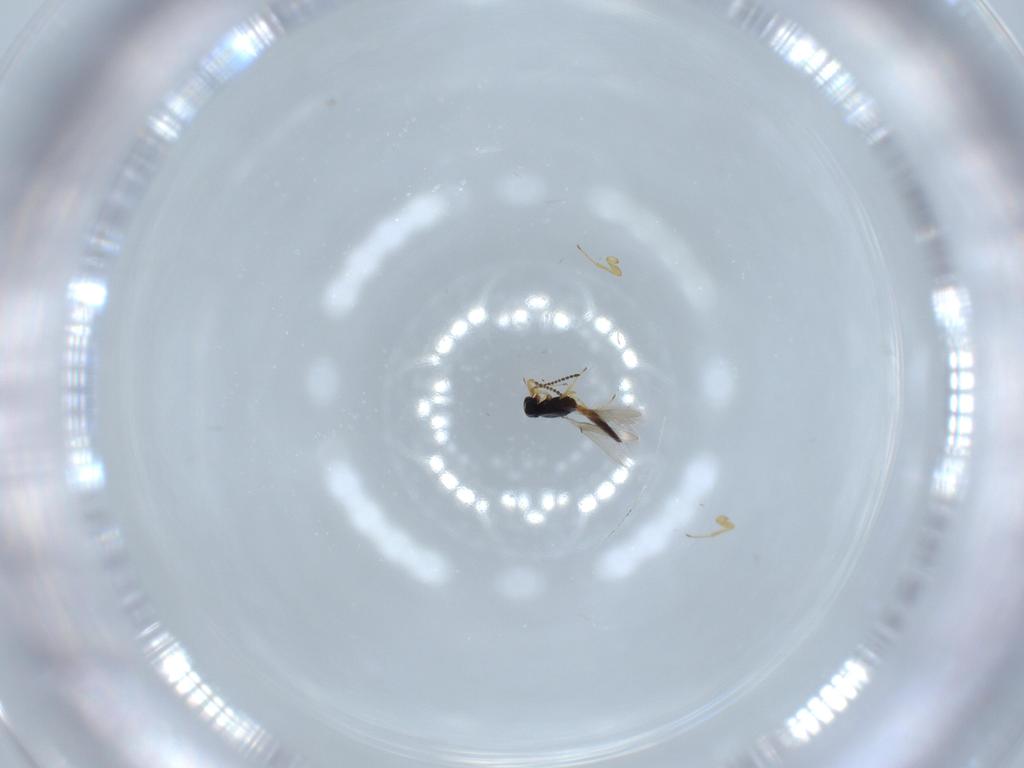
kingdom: Animalia
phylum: Arthropoda
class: Insecta
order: Hymenoptera
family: Scelionidae
